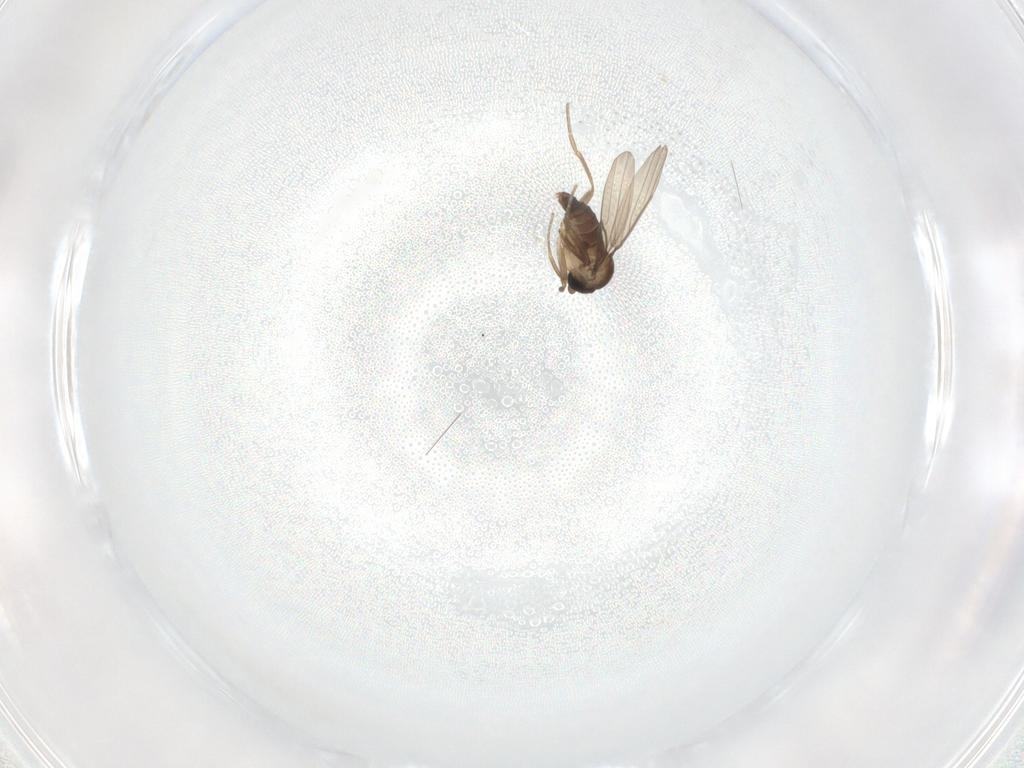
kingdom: Animalia
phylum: Arthropoda
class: Insecta
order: Diptera
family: Phoridae
